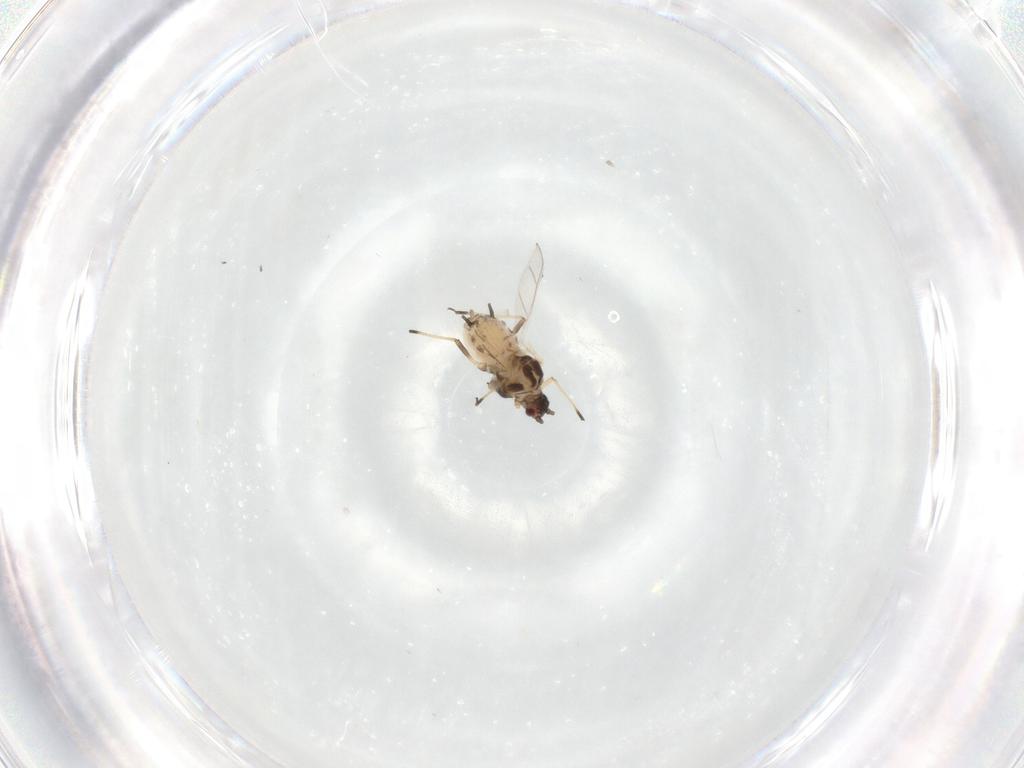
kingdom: Animalia
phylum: Arthropoda
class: Insecta
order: Hemiptera
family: Aphididae
